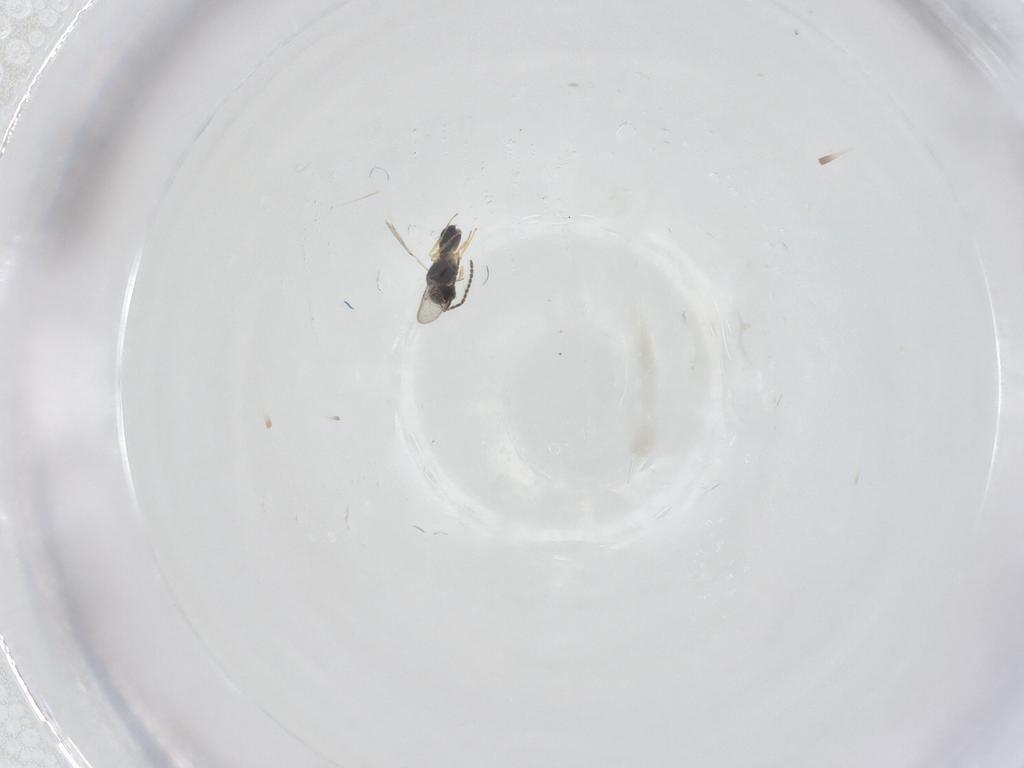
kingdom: Animalia
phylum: Arthropoda
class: Insecta
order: Hymenoptera
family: Scelionidae
